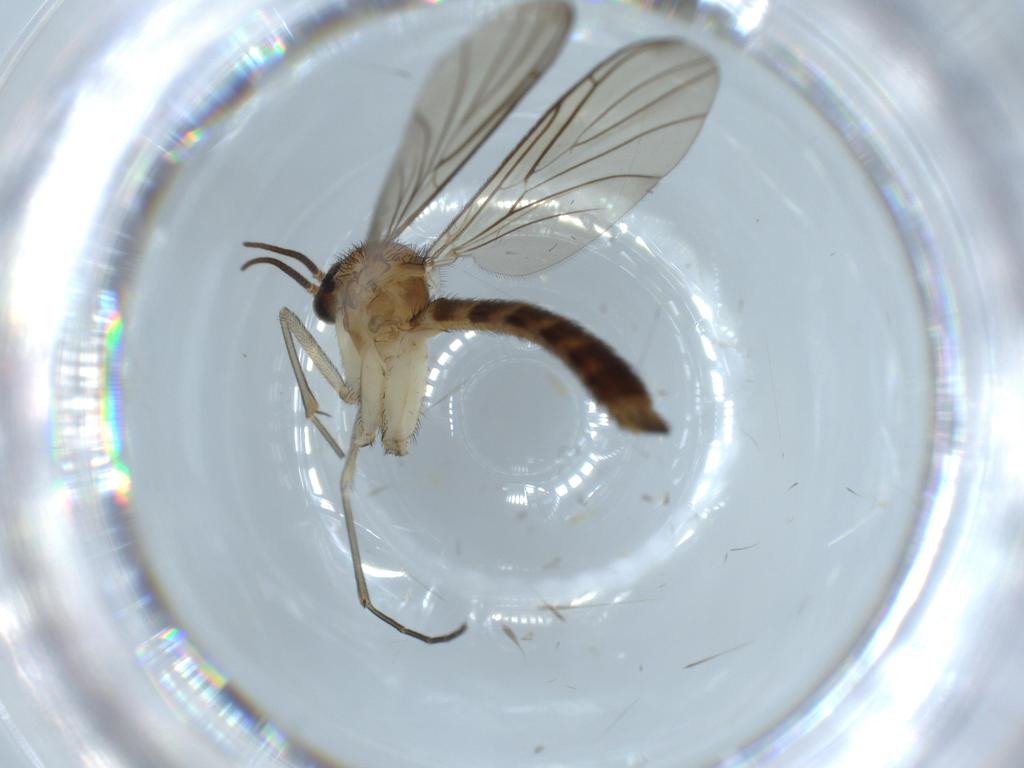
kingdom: Animalia
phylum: Arthropoda
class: Insecta
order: Diptera
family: Keroplatidae
